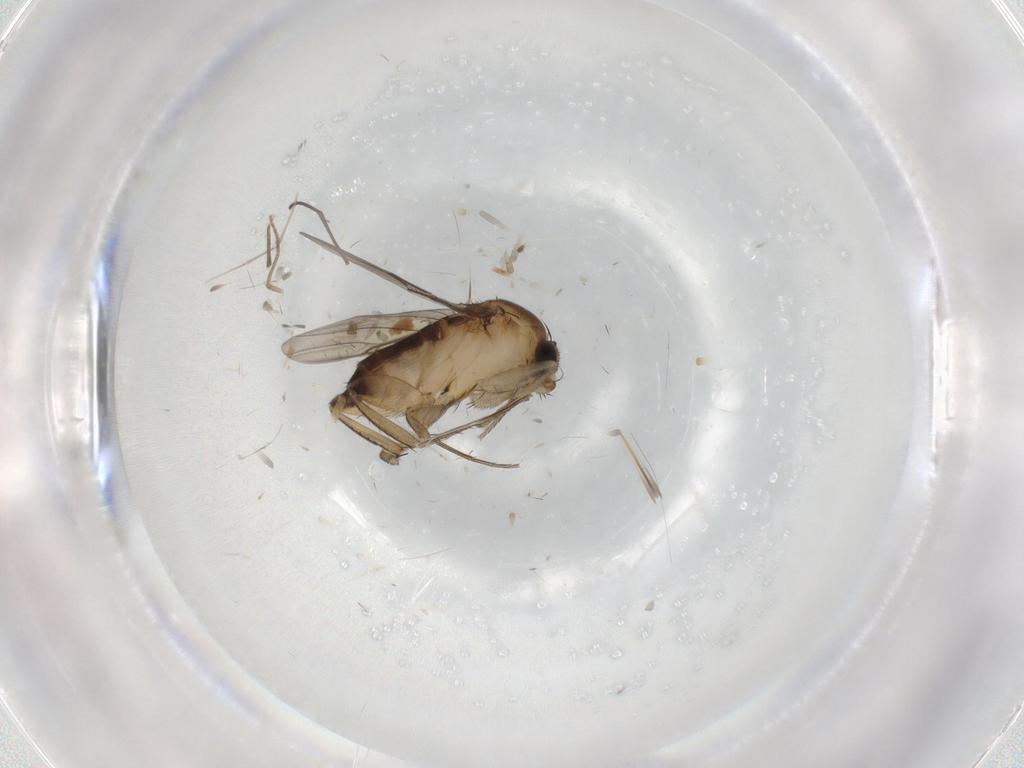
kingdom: Animalia
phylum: Arthropoda
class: Insecta
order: Diptera
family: Phoridae
